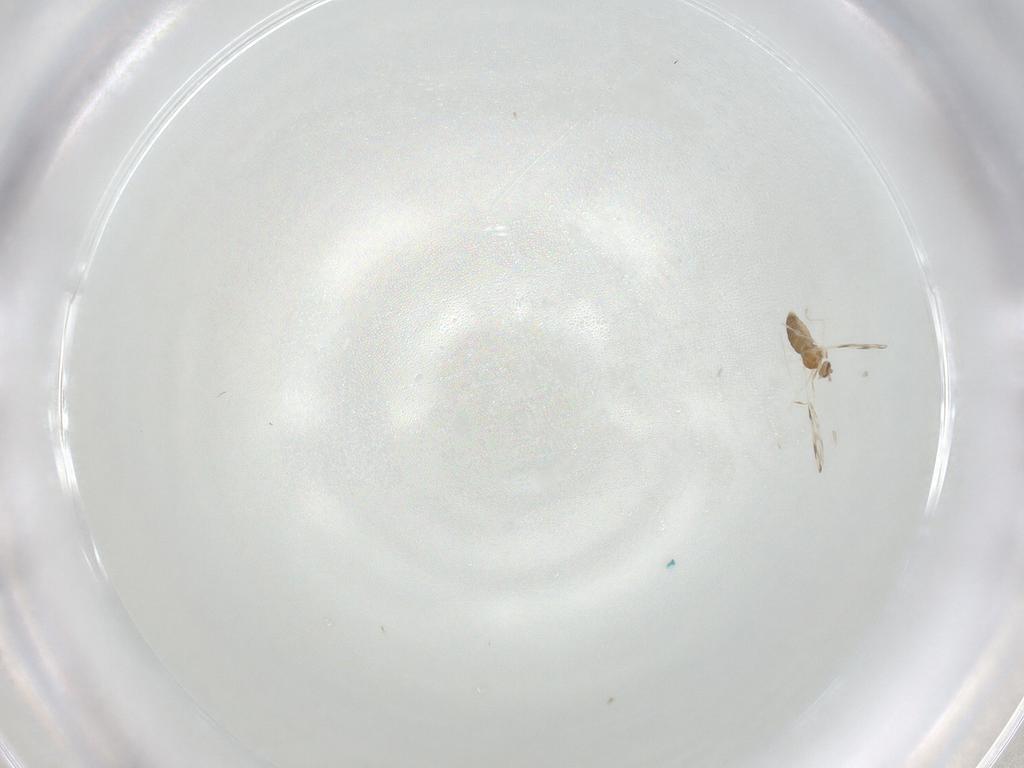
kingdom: Animalia
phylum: Arthropoda
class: Insecta
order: Diptera
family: Cecidomyiidae
